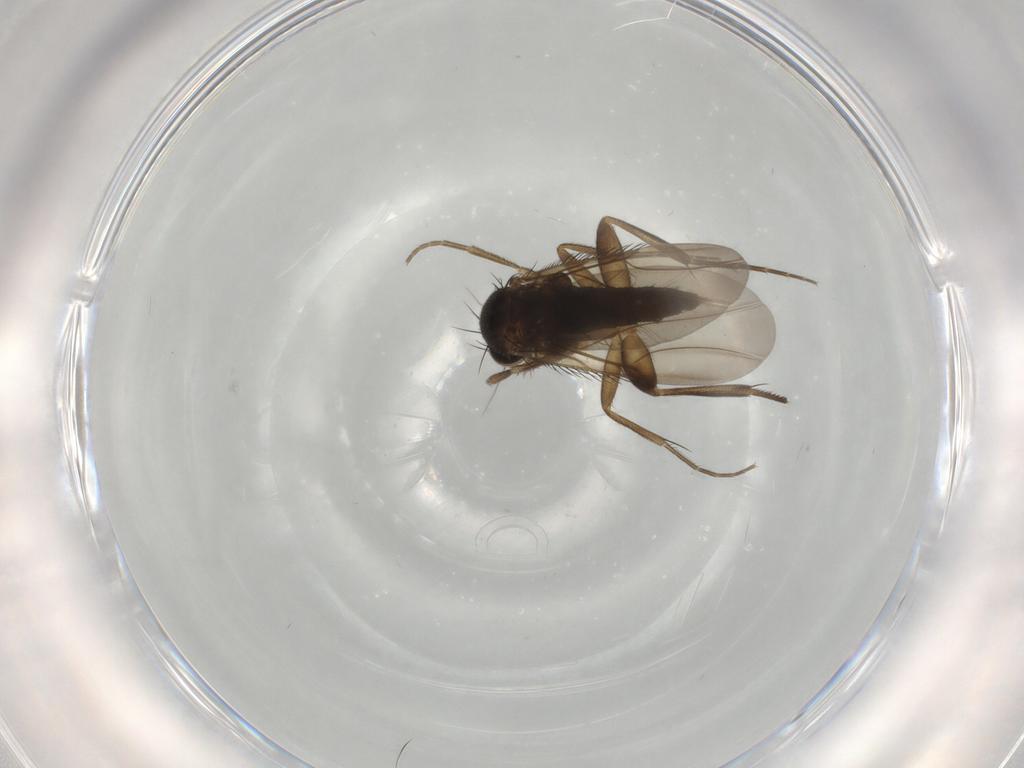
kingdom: Animalia
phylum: Arthropoda
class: Insecta
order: Diptera
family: Phoridae
